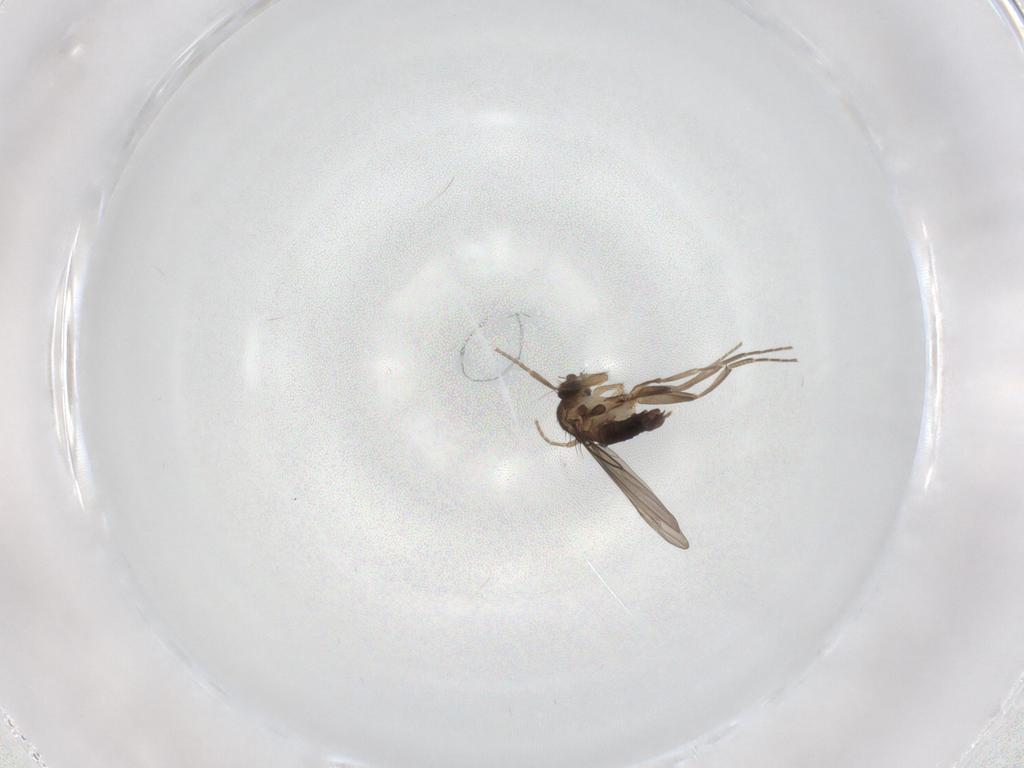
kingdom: Animalia
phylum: Arthropoda
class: Insecta
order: Diptera
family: Phoridae
